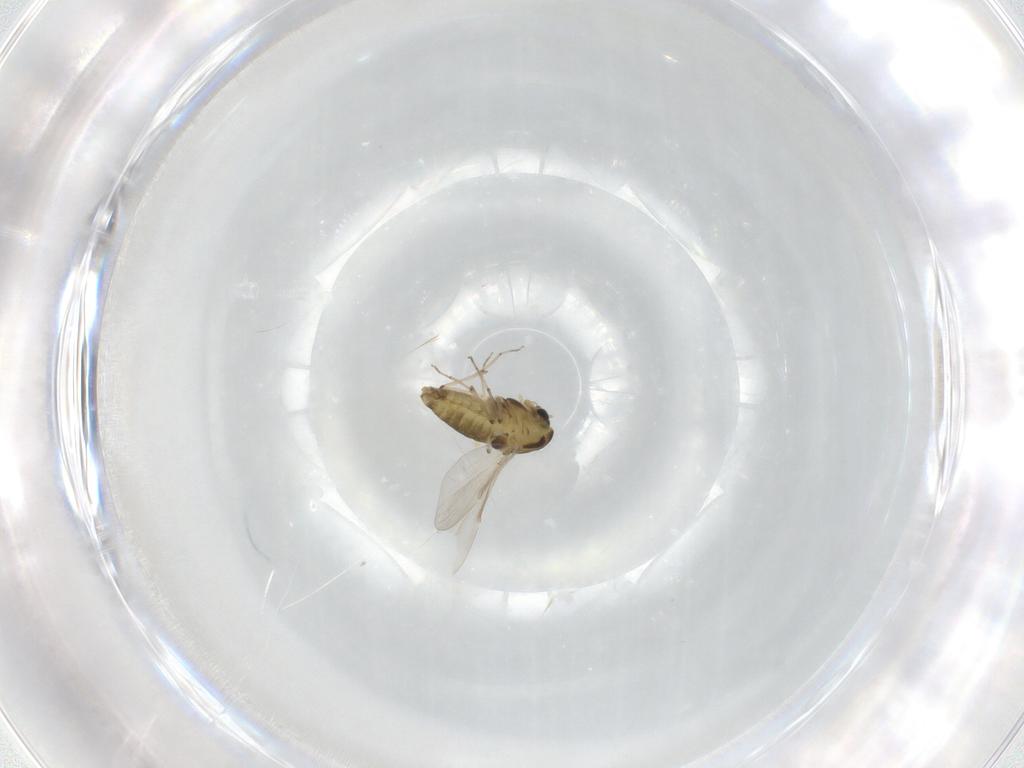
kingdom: Animalia
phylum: Arthropoda
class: Insecta
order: Diptera
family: Chironomidae
